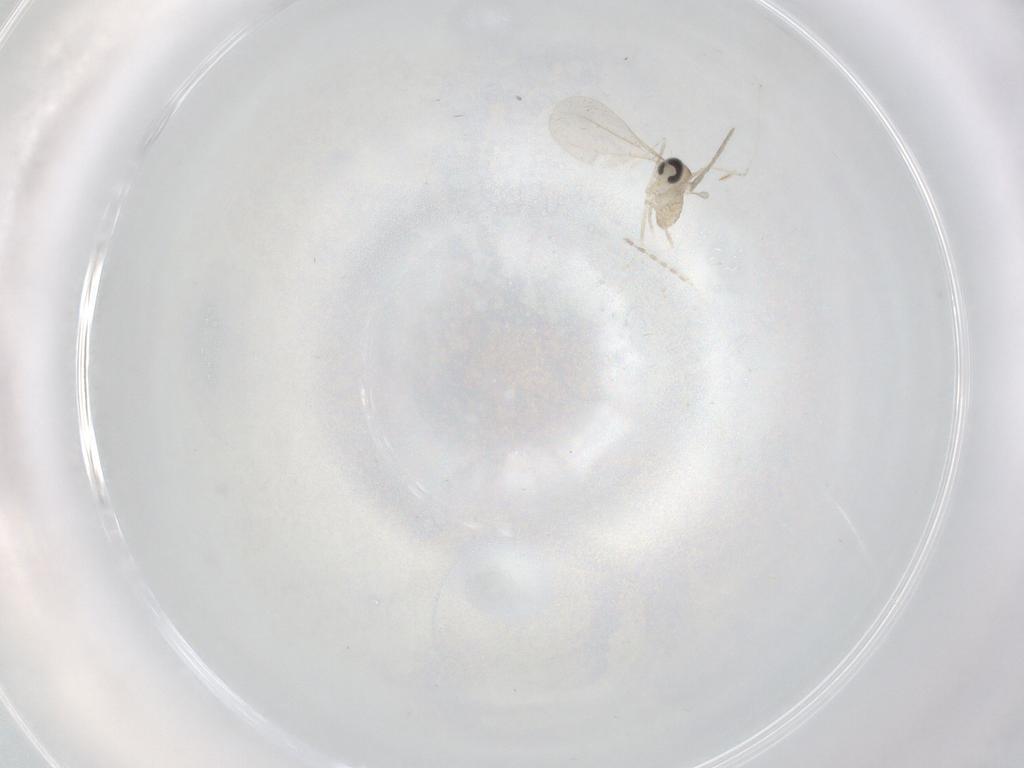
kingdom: Animalia
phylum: Arthropoda
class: Insecta
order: Diptera
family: Cecidomyiidae
